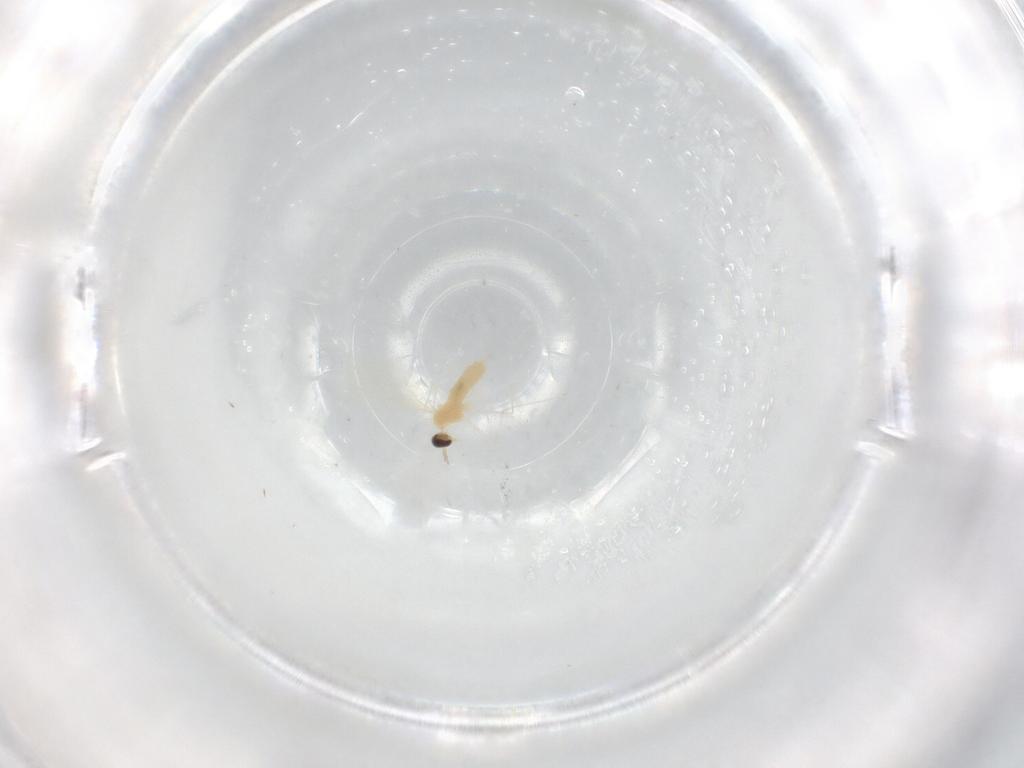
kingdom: Animalia
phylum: Arthropoda
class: Insecta
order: Diptera
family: Cecidomyiidae
